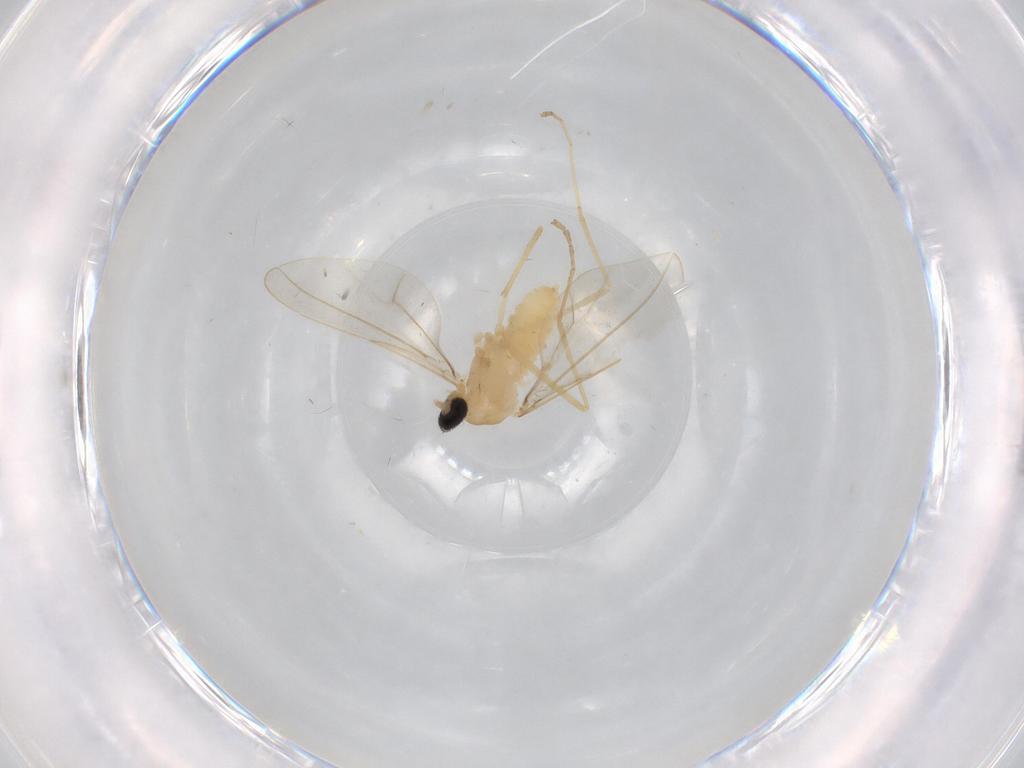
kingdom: Animalia
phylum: Arthropoda
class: Insecta
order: Diptera
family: Cecidomyiidae
